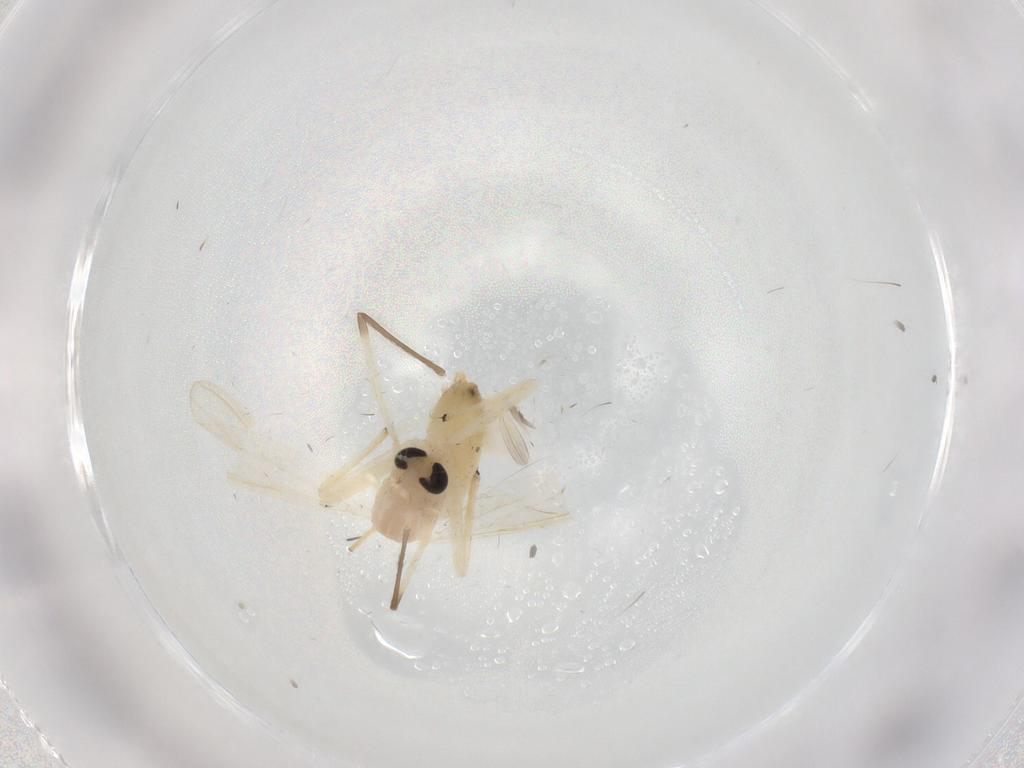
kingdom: Animalia
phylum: Arthropoda
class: Insecta
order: Diptera
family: Chironomidae
